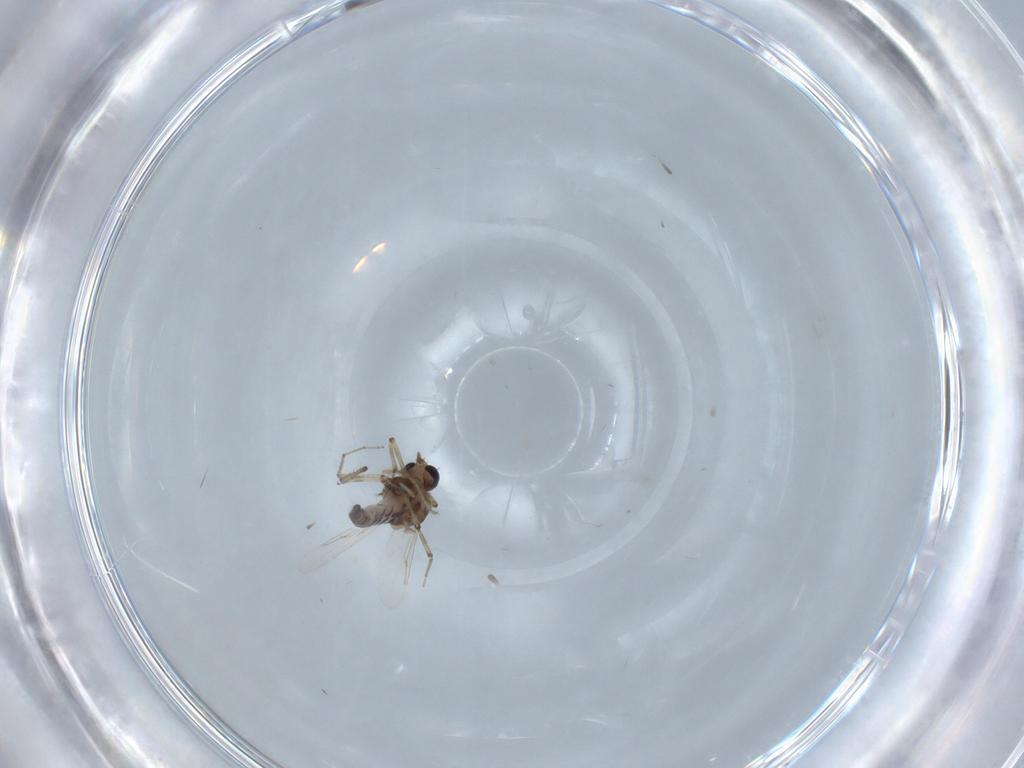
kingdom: Animalia
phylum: Arthropoda
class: Insecta
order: Diptera
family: Ceratopogonidae
